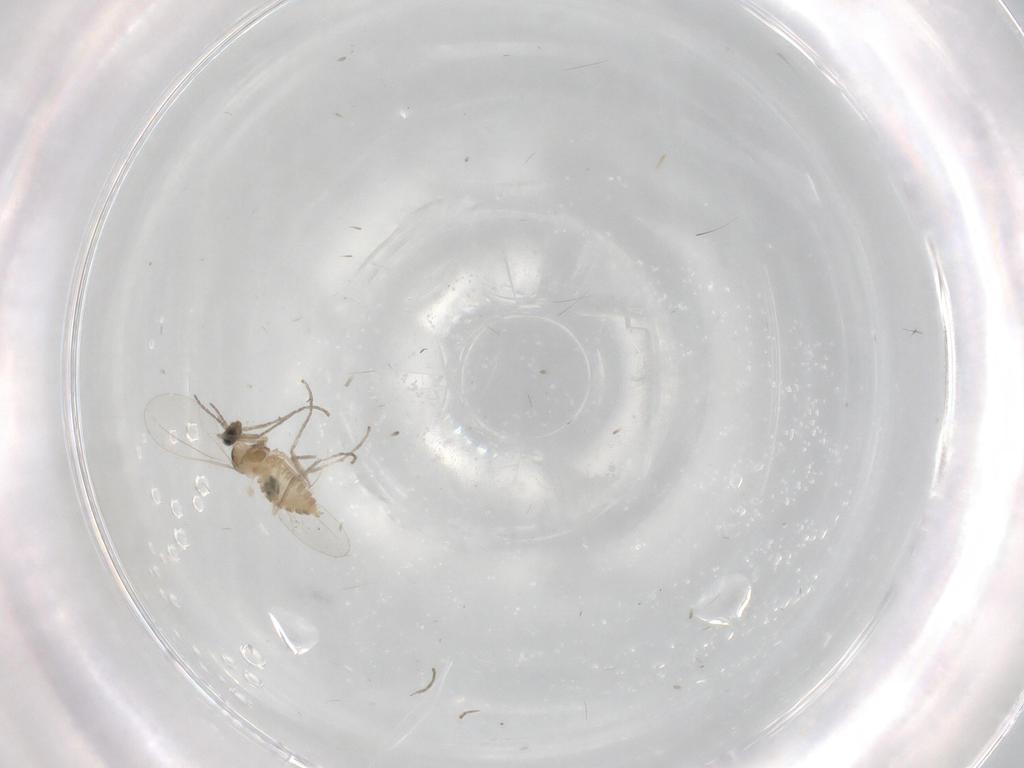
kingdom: Animalia
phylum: Arthropoda
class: Insecta
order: Diptera
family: Cecidomyiidae
